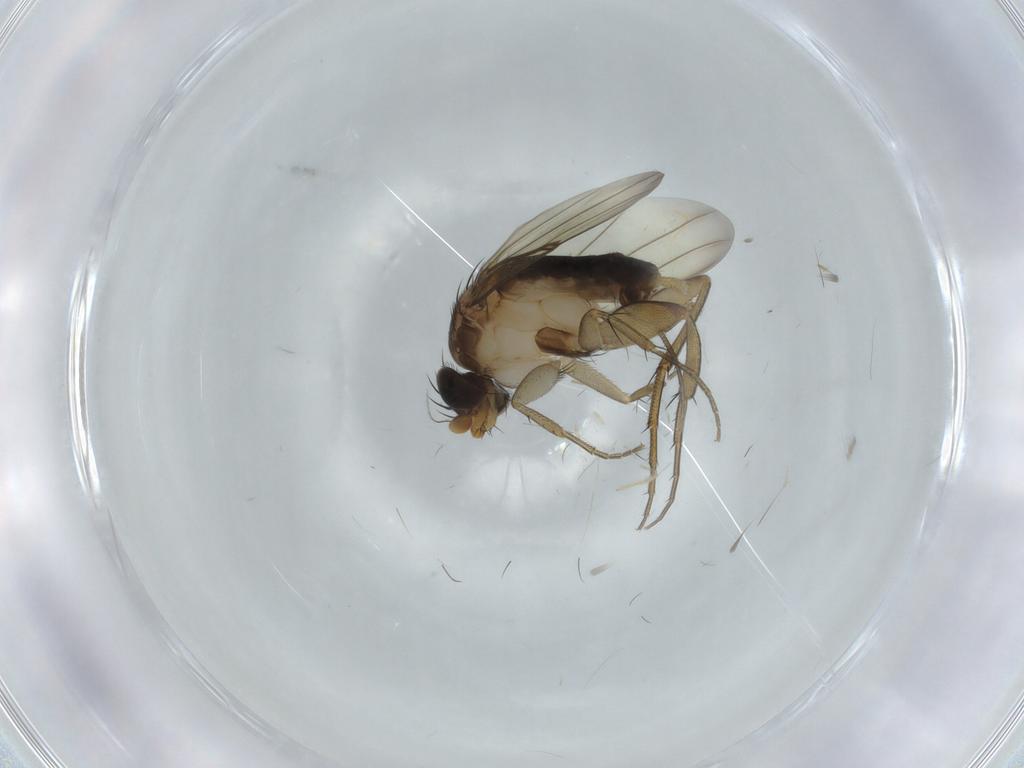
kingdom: Animalia
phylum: Arthropoda
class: Insecta
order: Diptera
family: Phoridae
